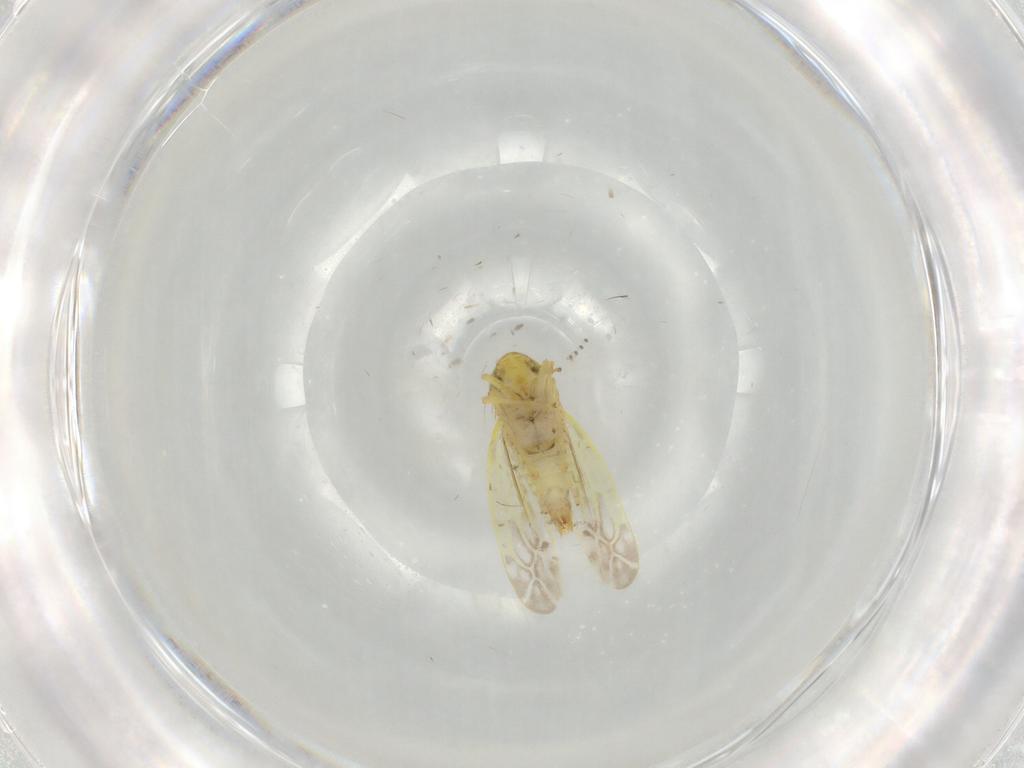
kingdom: Animalia
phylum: Arthropoda
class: Insecta
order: Hemiptera
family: Cicadellidae
